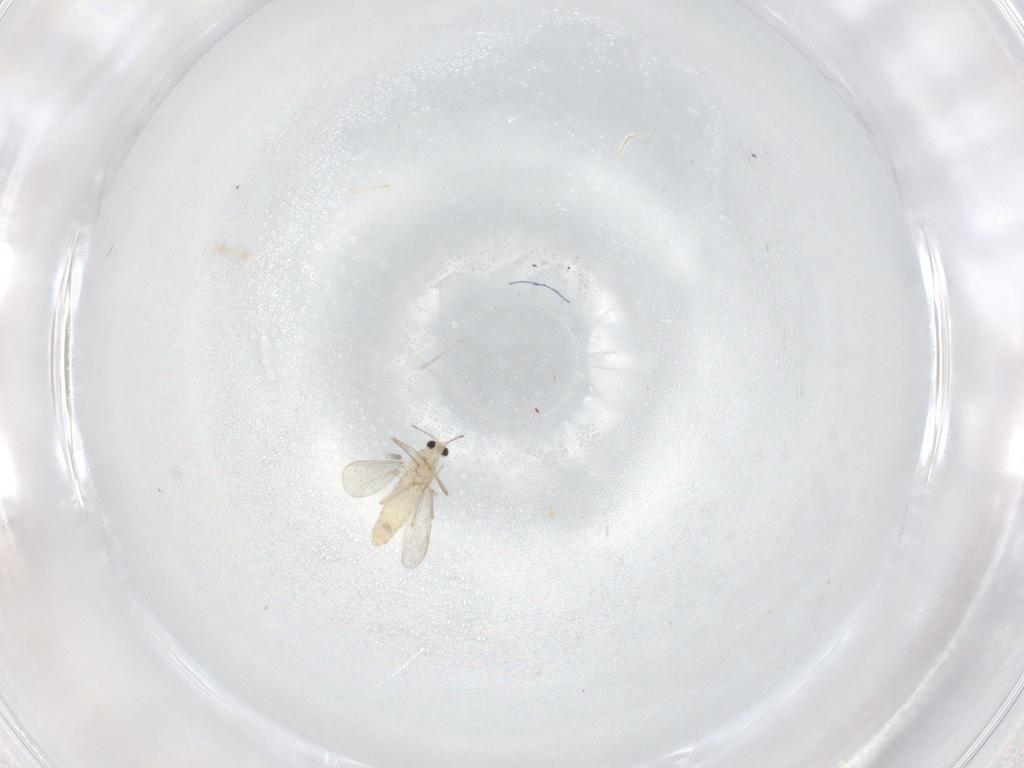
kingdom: Animalia
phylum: Arthropoda
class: Insecta
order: Diptera
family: Chironomidae
